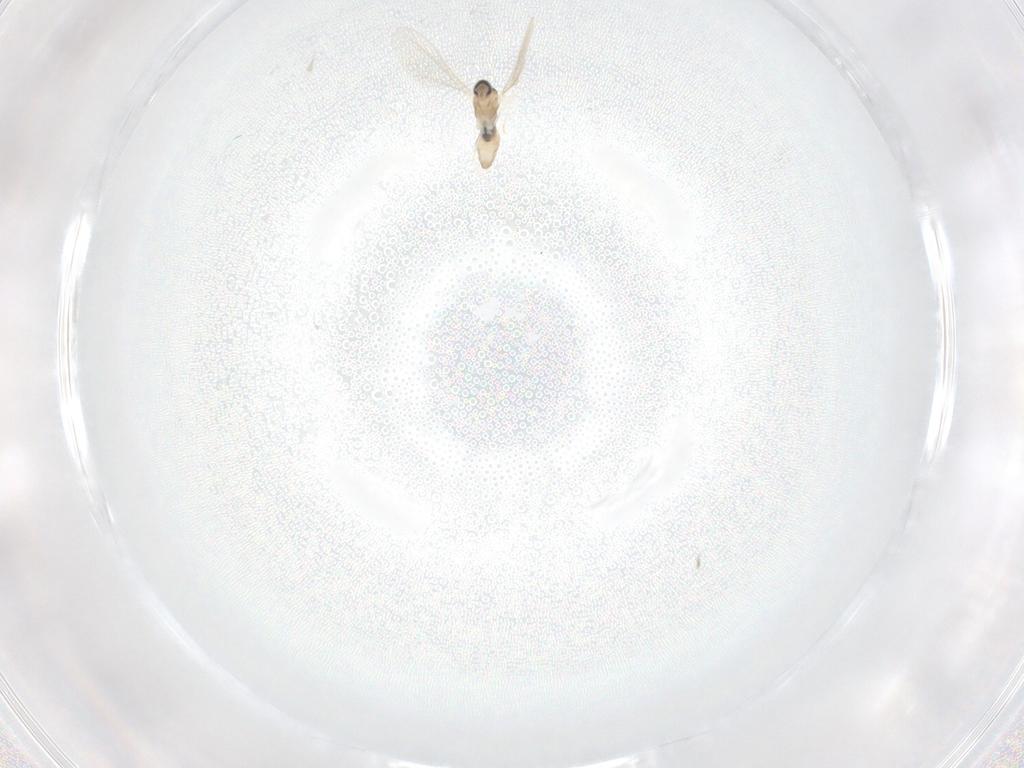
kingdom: Animalia
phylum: Arthropoda
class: Insecta
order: Diptera
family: Dolichopodidae
